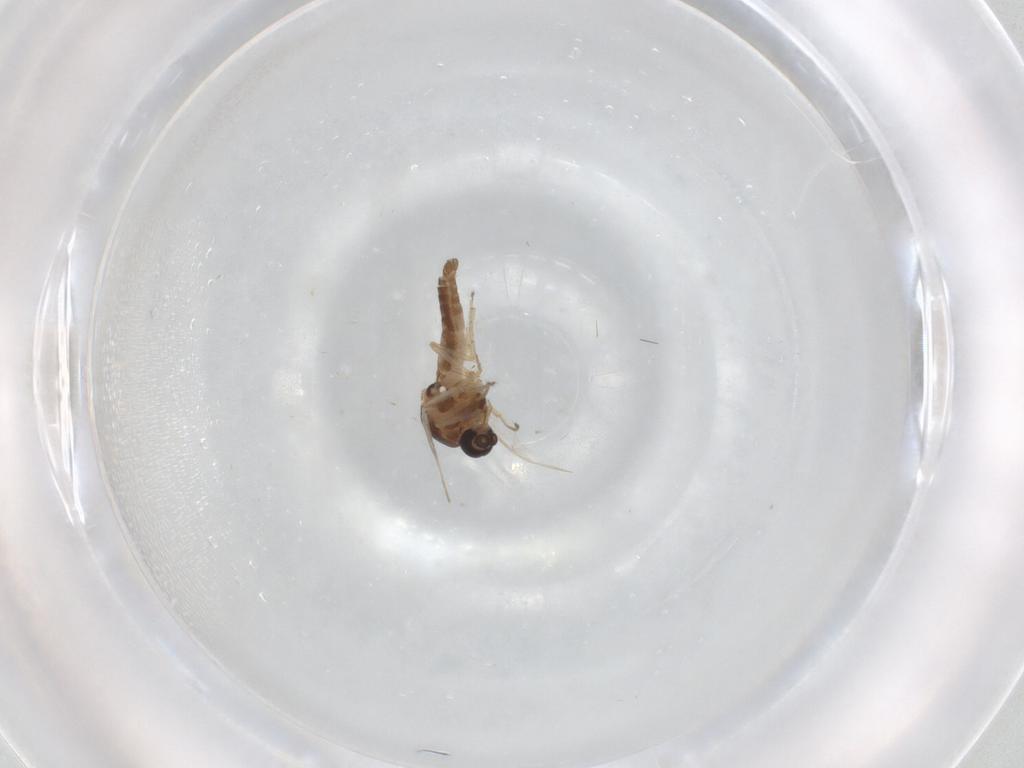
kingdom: Animalia
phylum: Arthropoda
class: Insecta
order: Diptera
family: Ceratopogonidae
